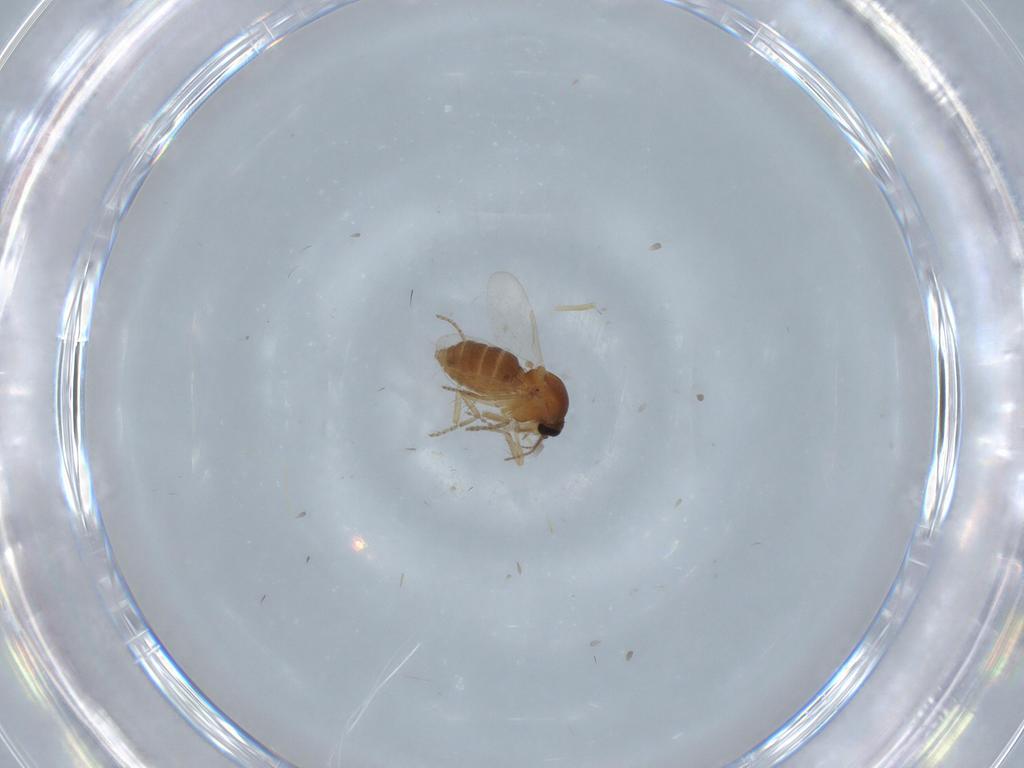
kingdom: Animalia
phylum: Arthropoda
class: Insecta
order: Diptera
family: Ceratopogonidae
